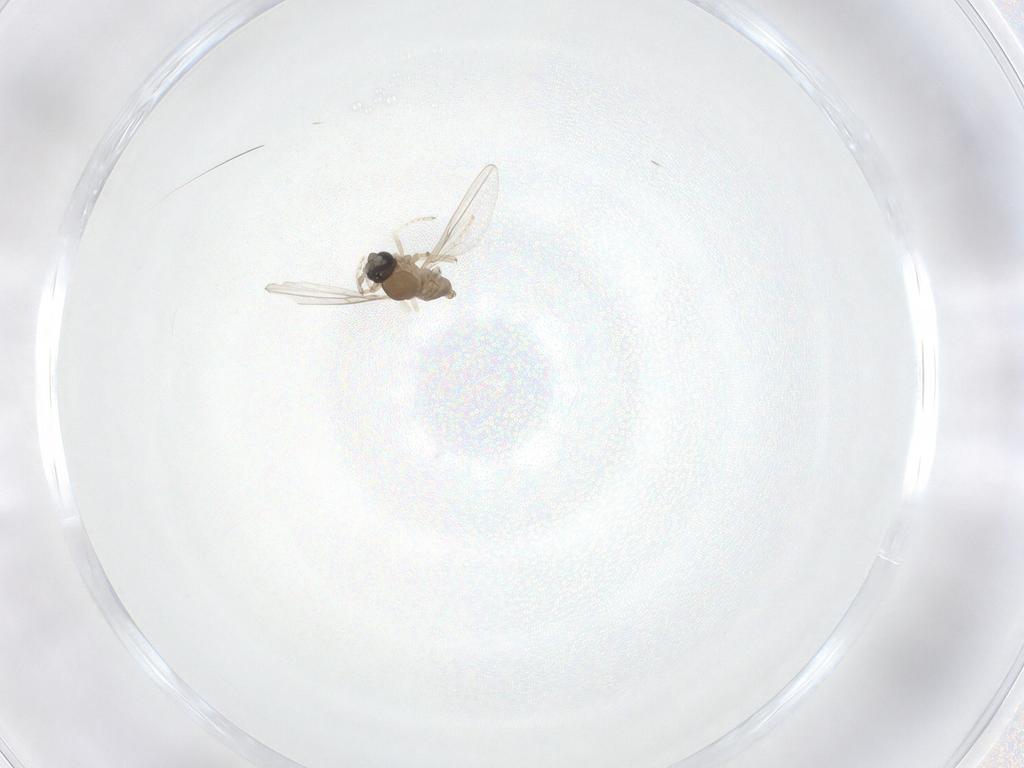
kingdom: Animalia
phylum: Arthropoda
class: Insecta
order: Diptera
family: Cecidomyiidae
